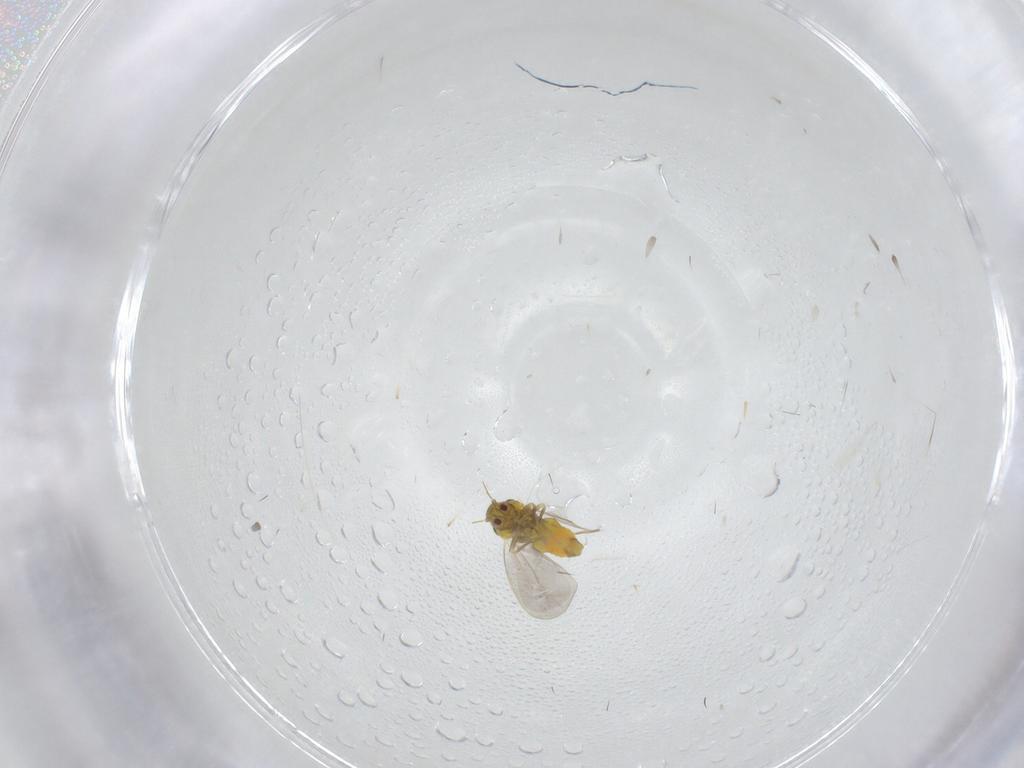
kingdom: Animalia
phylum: Arthropoda
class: Insecta
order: Hemiptera
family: Aleyrodidae
